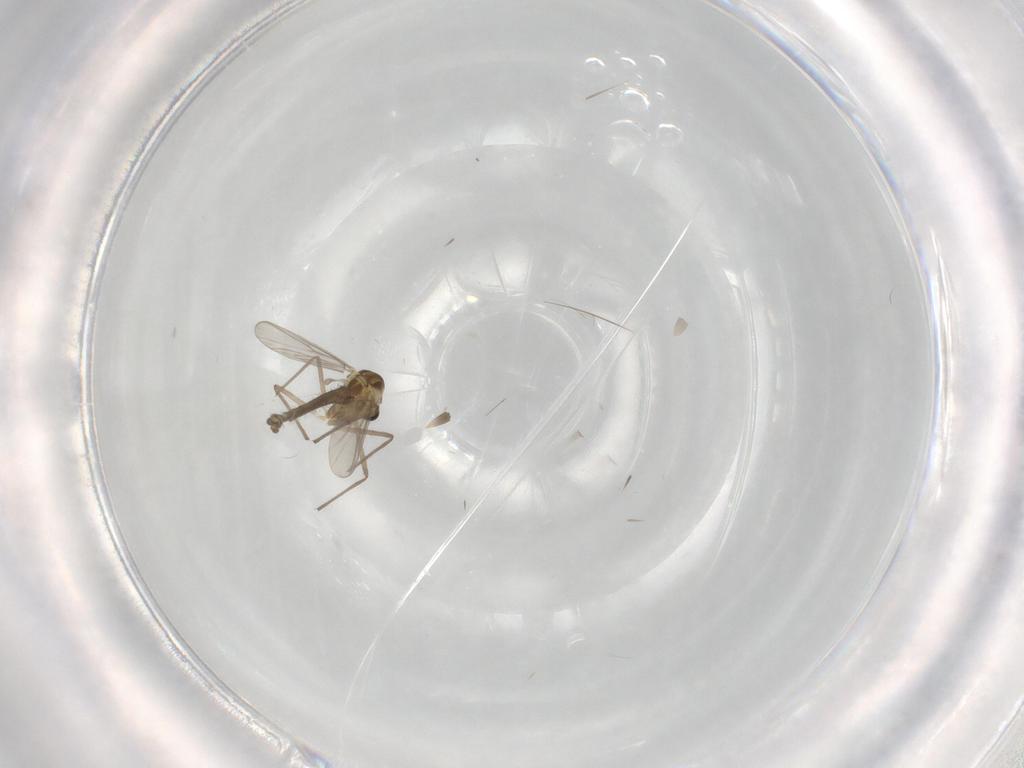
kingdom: Animalia
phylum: Arthropoda
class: Insecta
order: Diptera
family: Chironomidae
